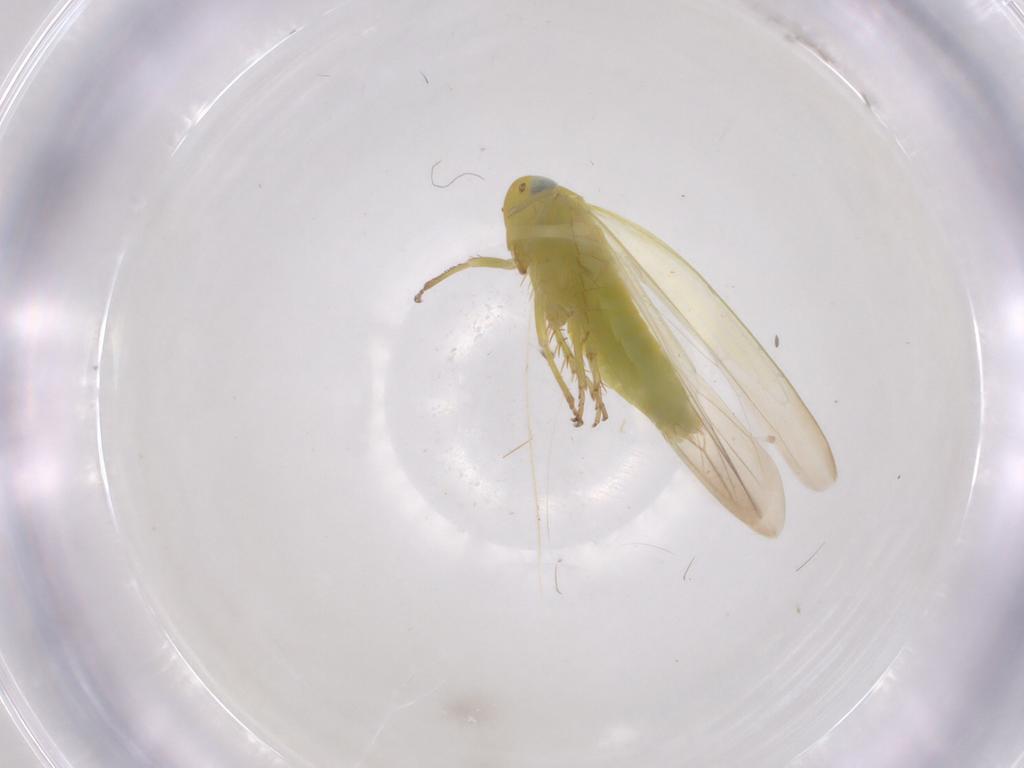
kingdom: Animalia
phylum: Arthropoda
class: Insecta
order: Hemiptera
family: Cicadellidae
